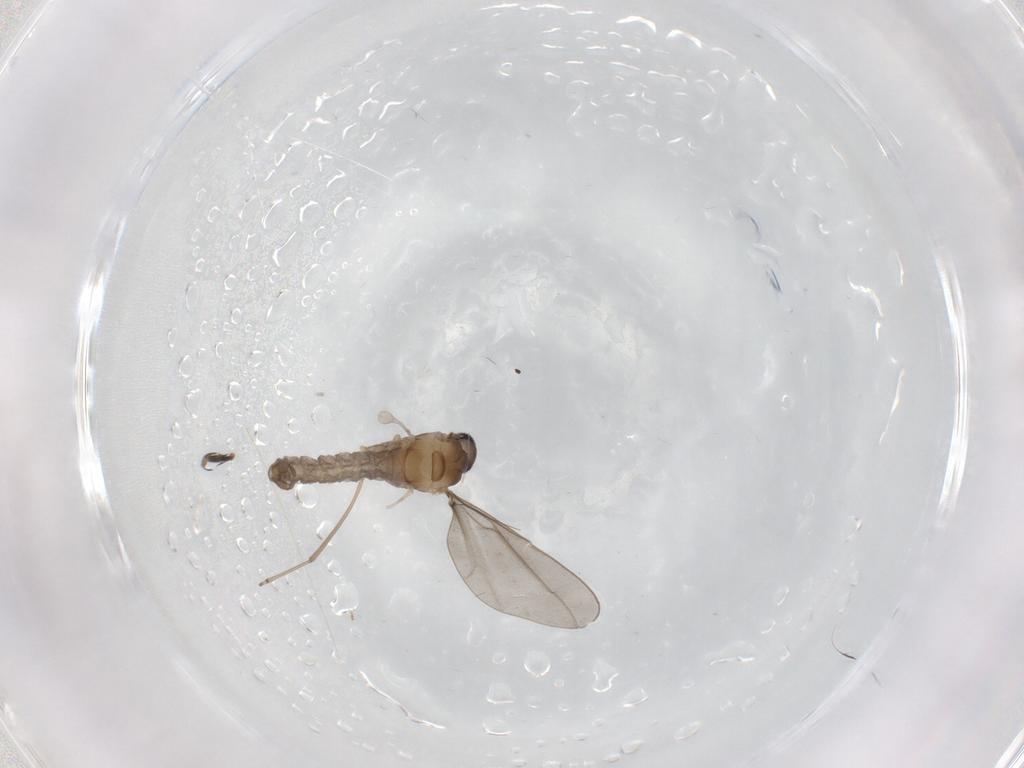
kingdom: Animalia
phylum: Arthropoda
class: Insecta
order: Diptera
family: Cecidomyiidae
